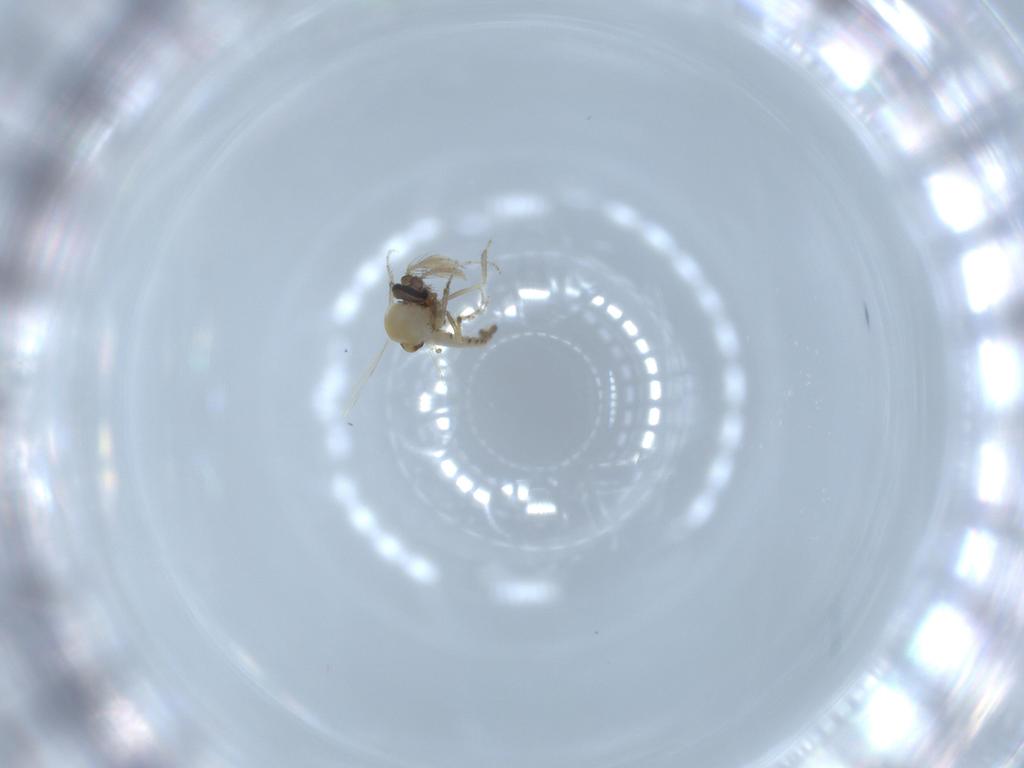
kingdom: Animalia
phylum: Arthropoda
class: Insecta
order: Diptera
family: Ceratopogonidae
